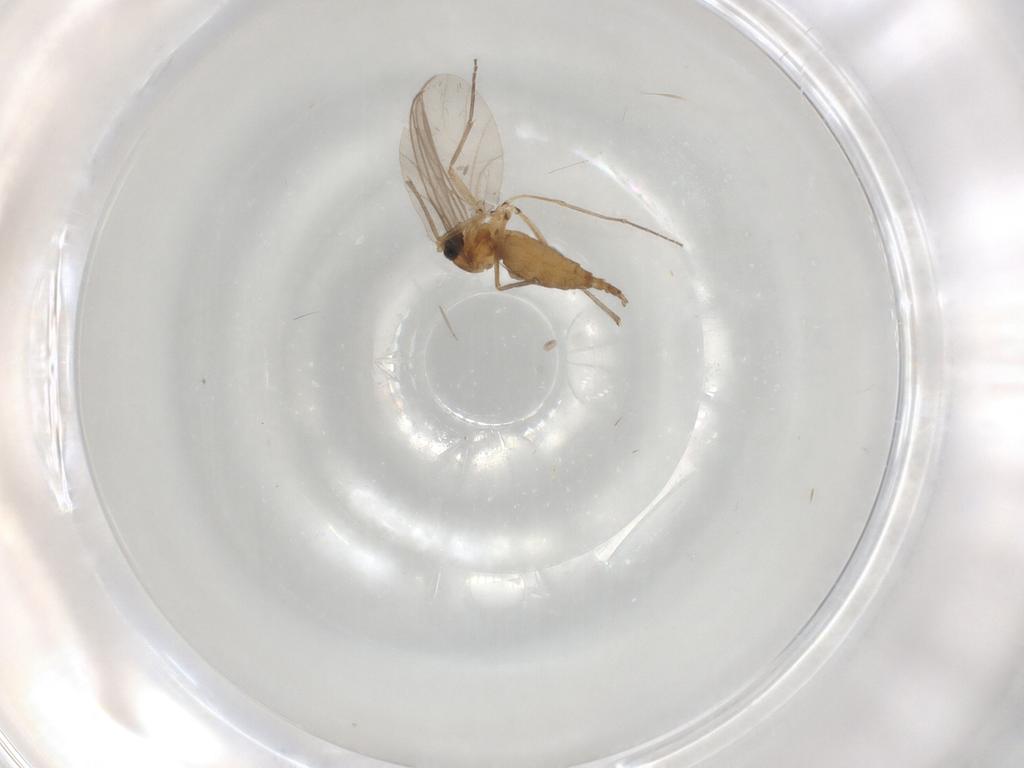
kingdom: Animalia
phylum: Arthropoda
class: Insecta
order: Diptera
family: Sciaridae
